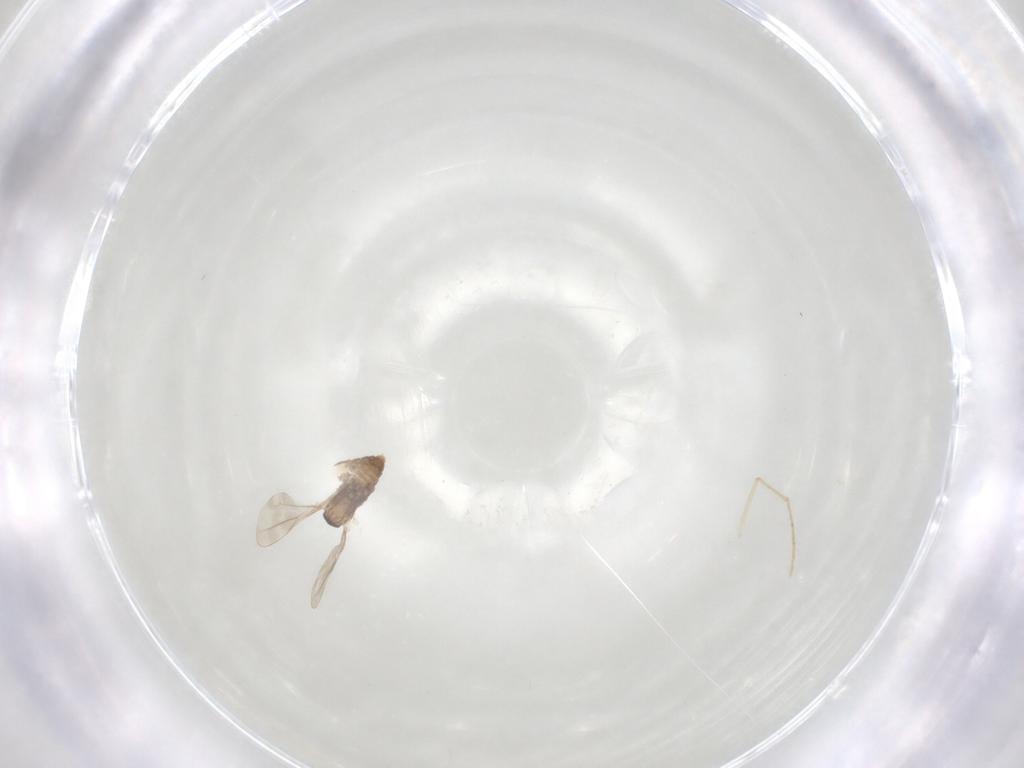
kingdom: Animalia
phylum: Arthropoda
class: Insecta
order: Diptera
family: Cecidomyiidae
